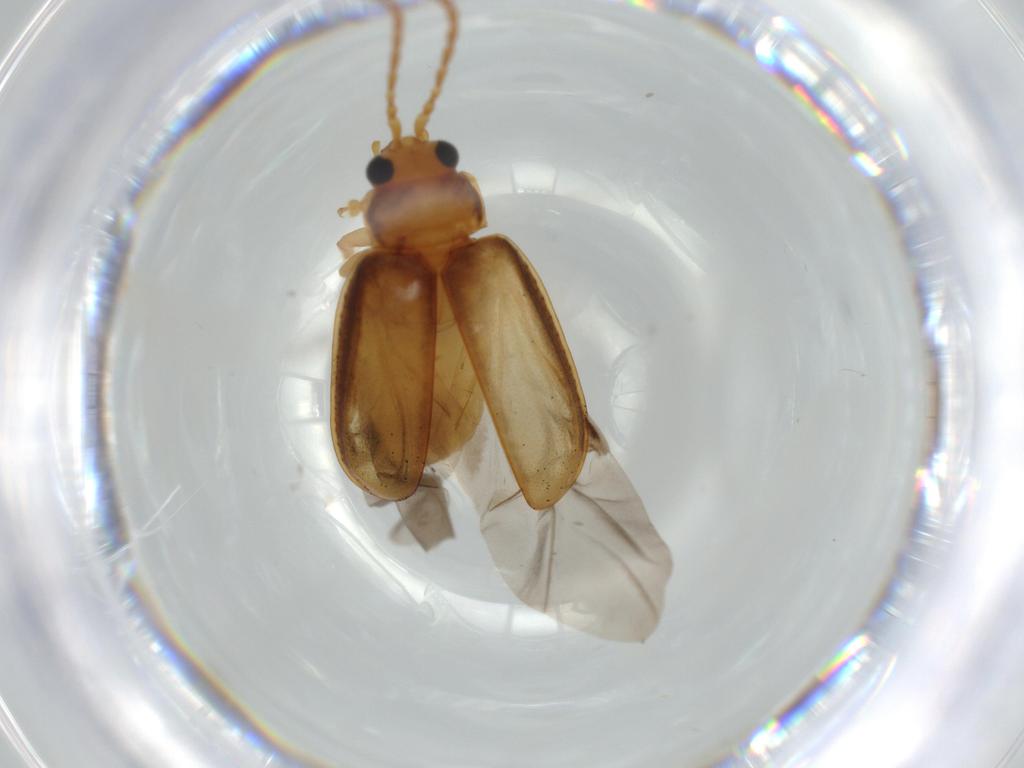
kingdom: Animalia
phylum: Arthropoda
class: Insecta
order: Coleoptera
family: Chrysomelidae
